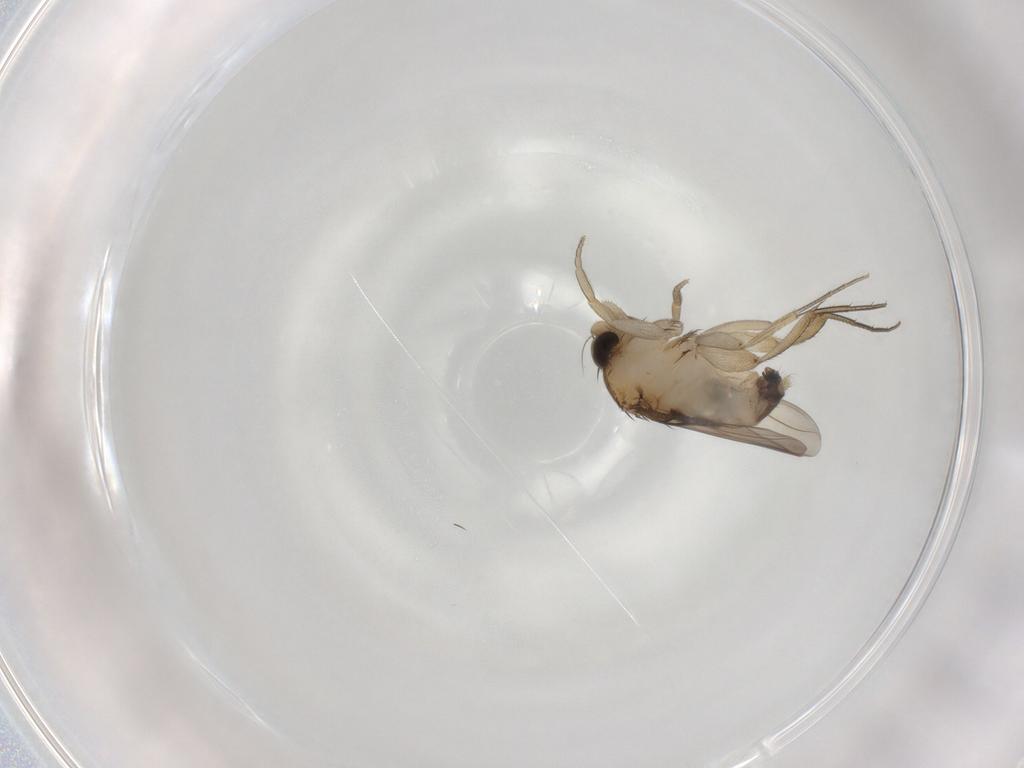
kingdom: Animalia
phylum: Arthropoda
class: Insecta
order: Diptera
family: Phoridae
